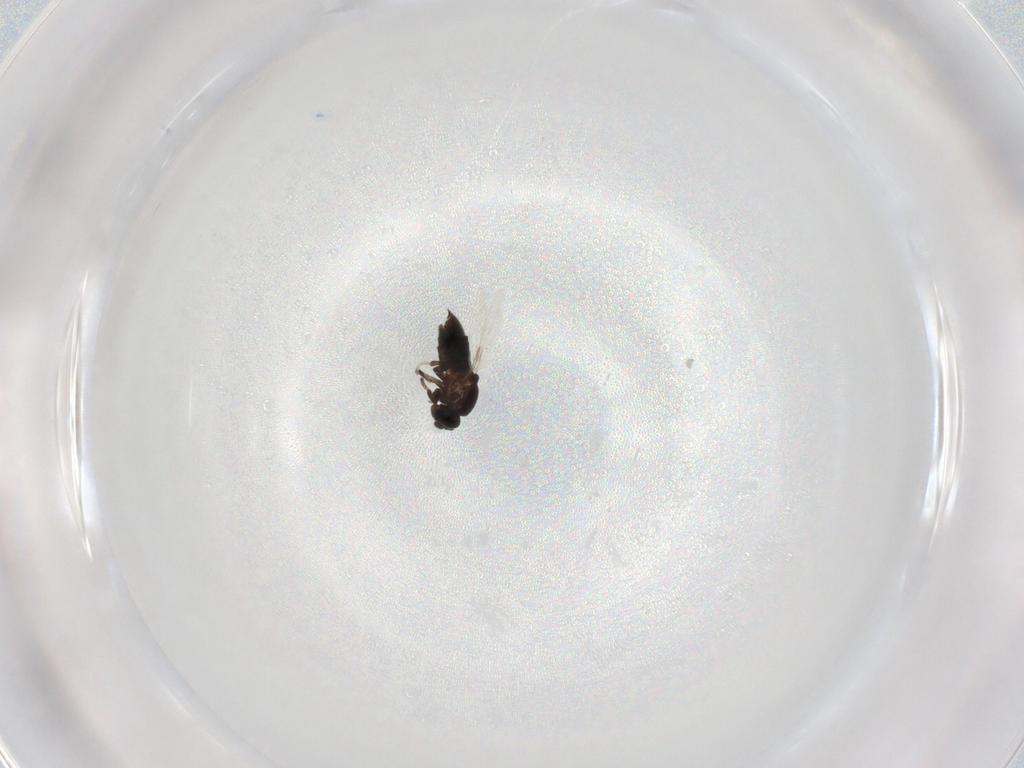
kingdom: Animalia
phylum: Arthropoda
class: Insecta
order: Diptera
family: Scatopsidae
